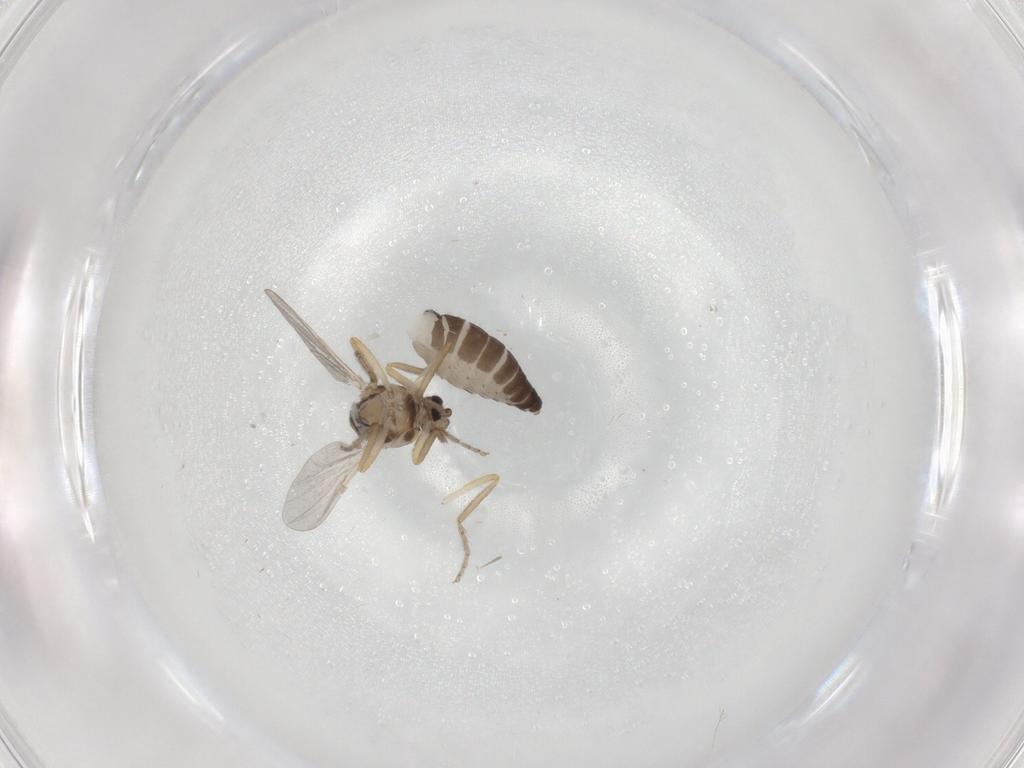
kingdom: Animalia
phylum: Arthropoda
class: Insecta
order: Diptera
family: Ceratopogonidae
